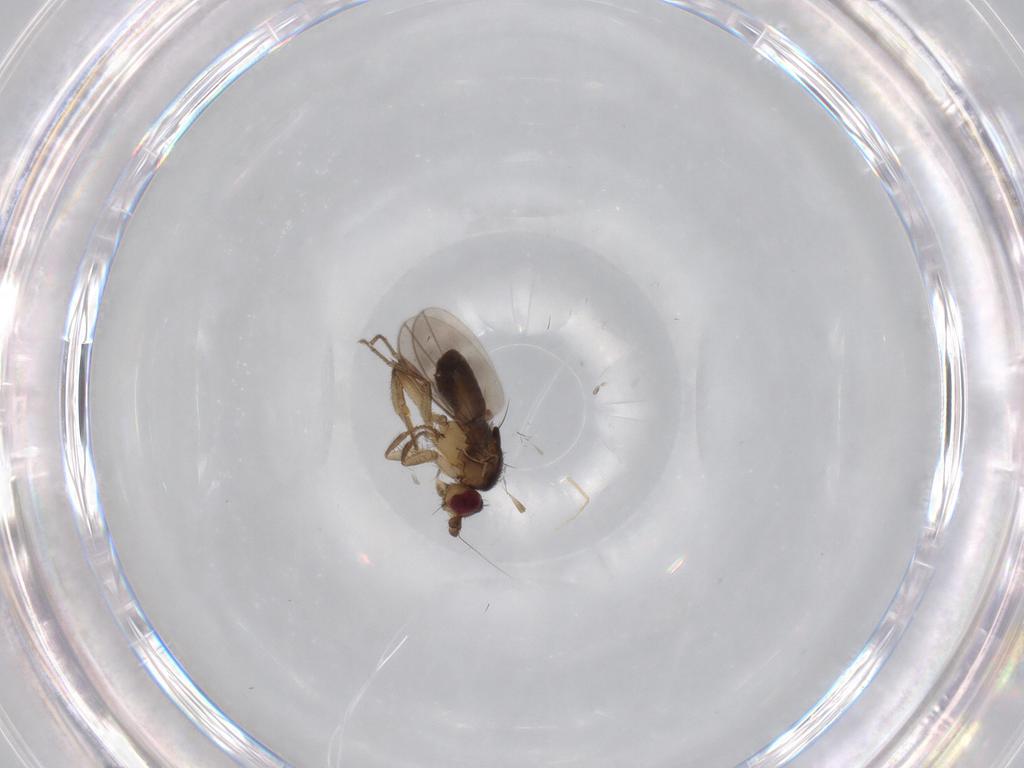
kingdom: Animalia
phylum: Arthropoda
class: Insecta
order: Diptera
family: Sphaeroceridae
